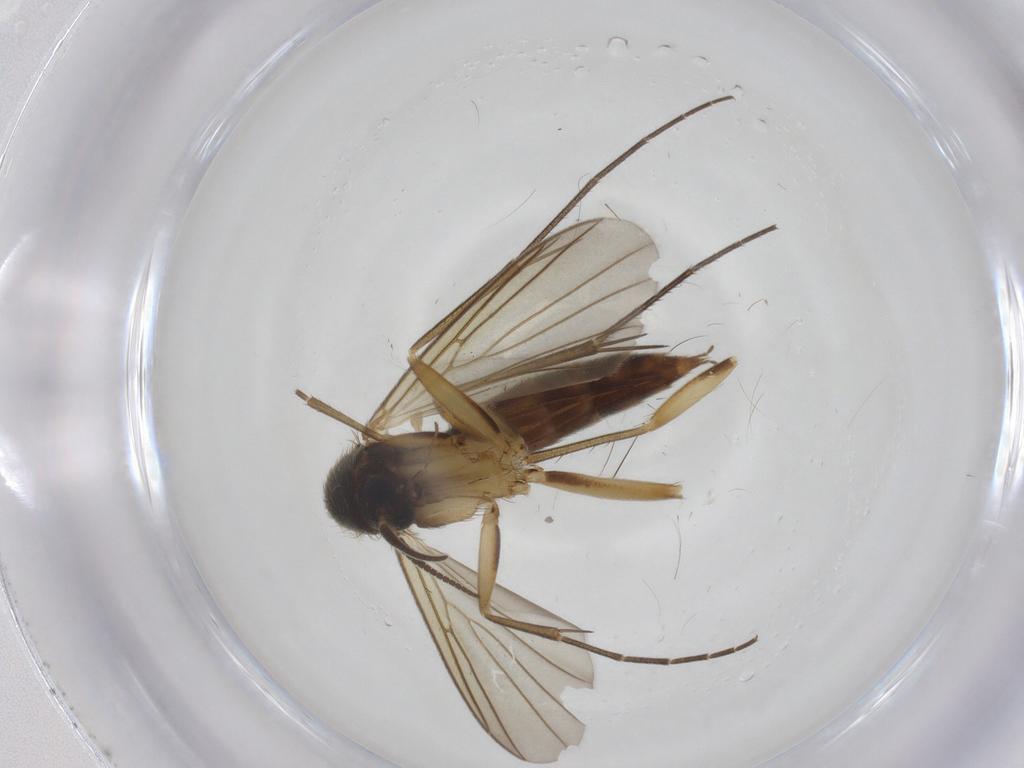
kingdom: Animalia
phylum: Arthropoda
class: Insecta
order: Diptera
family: Mycetophilidae
